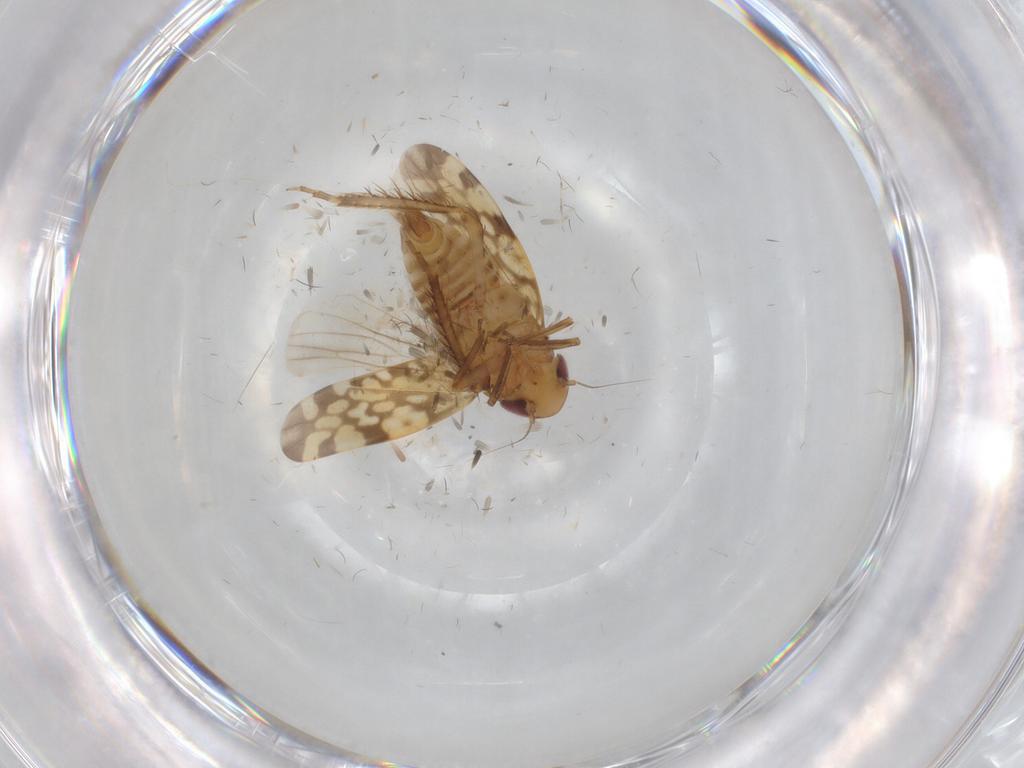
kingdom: Animalia
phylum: Arthropoda
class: Insecta
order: Hemiptera
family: Cicadellidae
